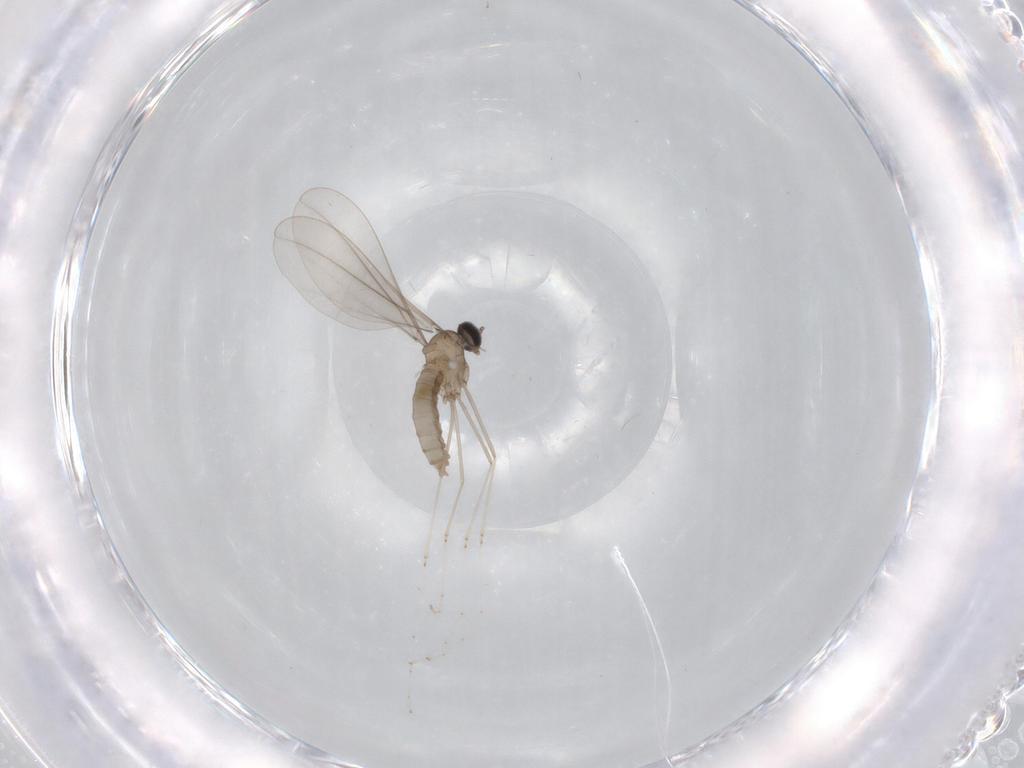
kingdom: Animalia
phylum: Arthropoda
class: Insecta
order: Diptera
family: Cecidomyiidae
